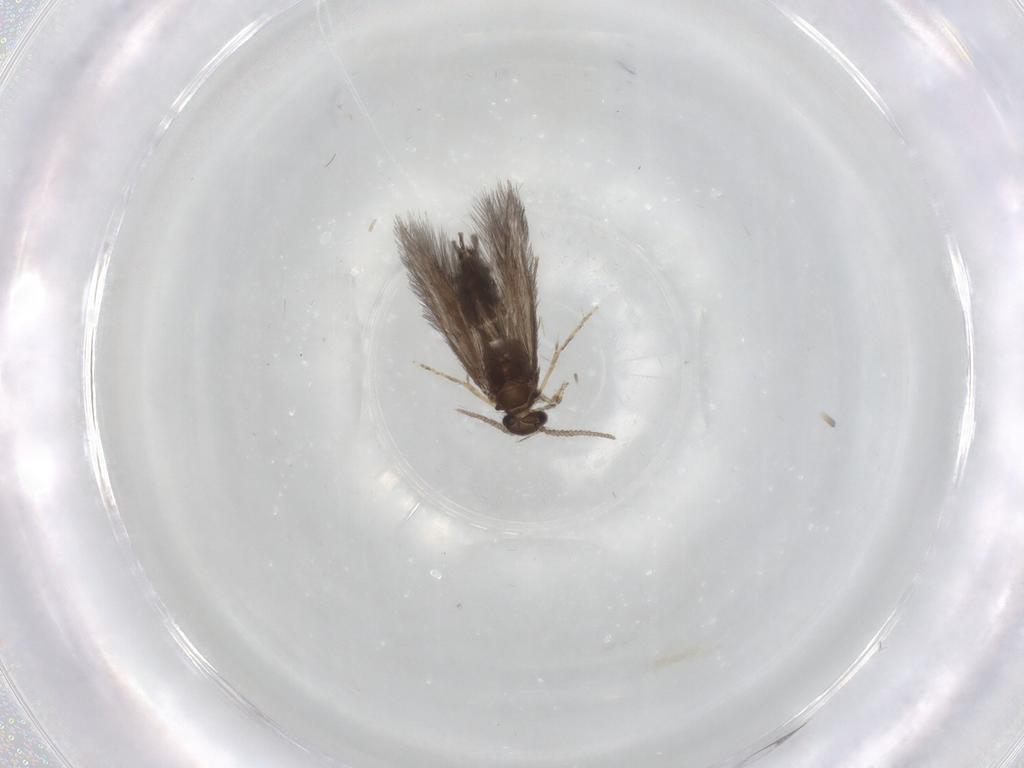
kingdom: Animalia
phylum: Arthropoda
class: Insecta
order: Trichoptera
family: Hydroptilidae
